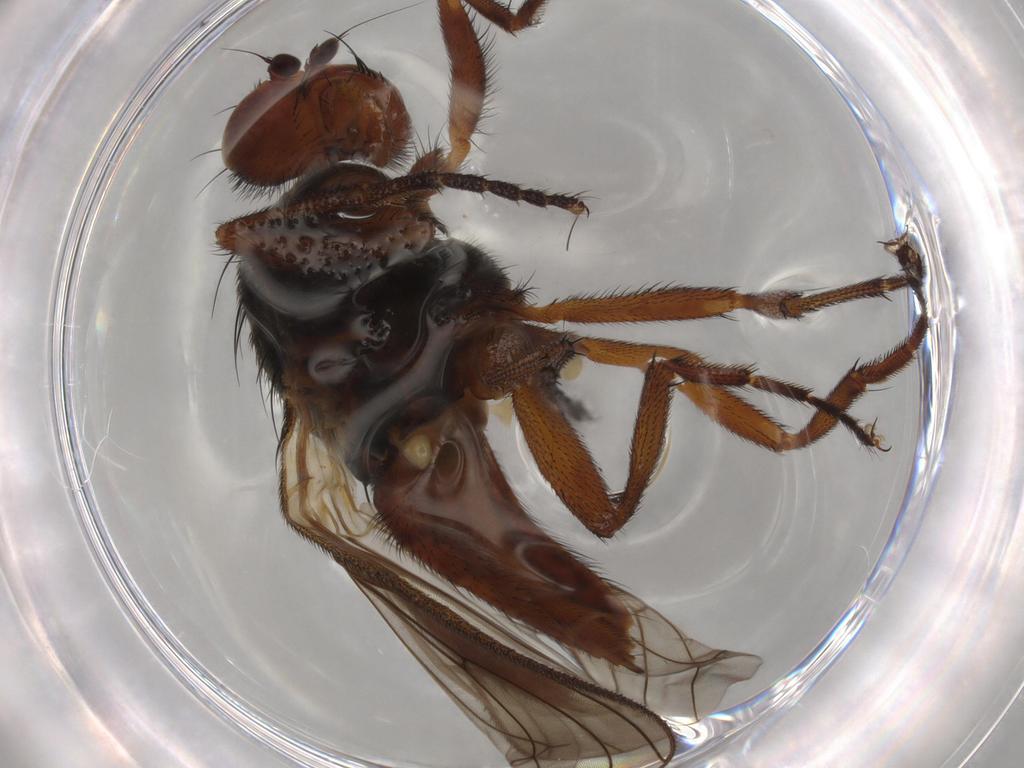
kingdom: Animalia
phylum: Arthropoda
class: Insecta
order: Diptera
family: Heleomyzidae
